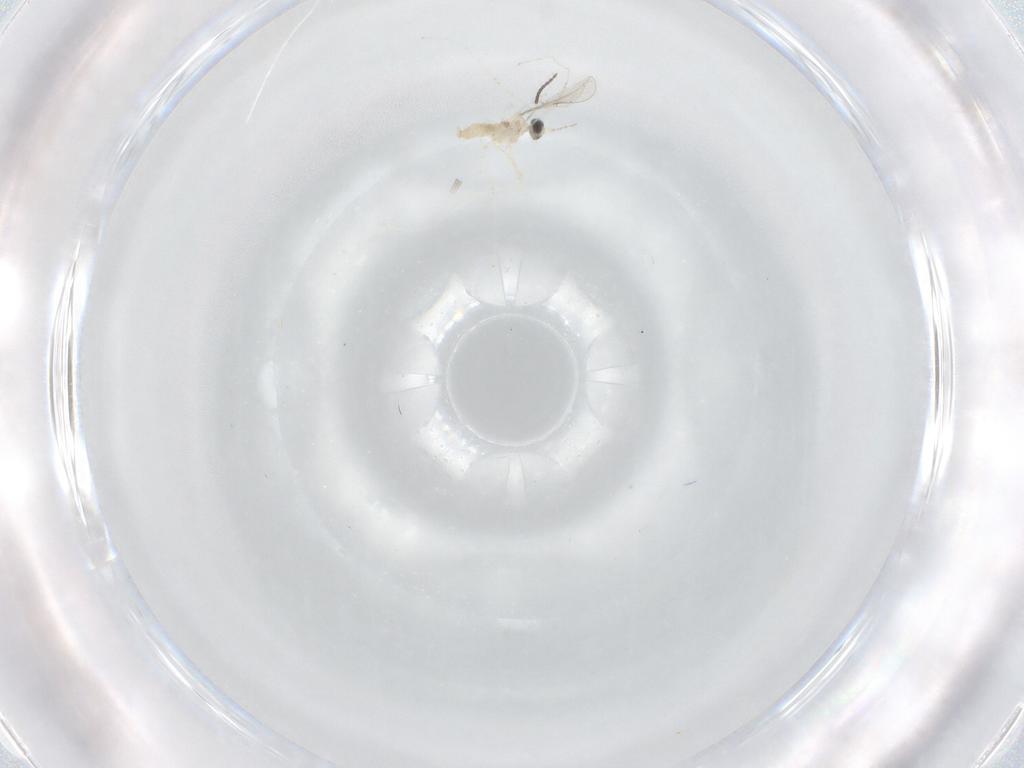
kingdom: Animalia
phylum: Arthropoda
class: Insecta
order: Diptera
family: Cecidomyiidae
